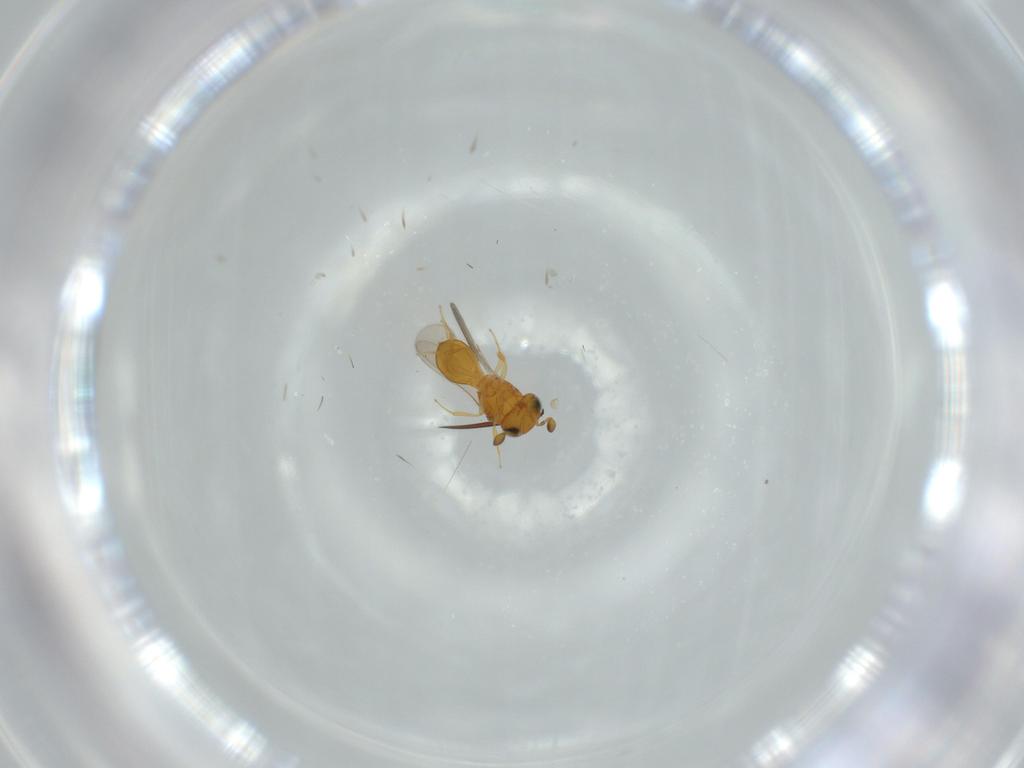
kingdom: Animalia
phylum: Arthropoda
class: Insecta
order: Hymenoptera
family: Scelionidae
